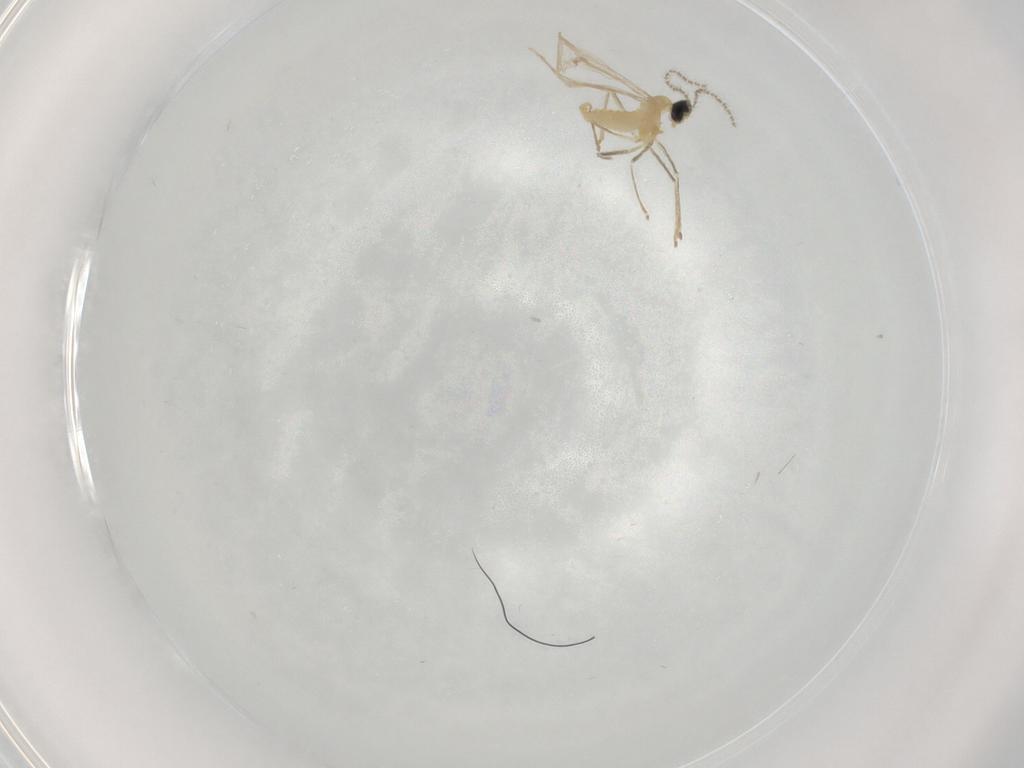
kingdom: Animalia
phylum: Arthropoda
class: Insecta
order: Diptera
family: Cecidomyiidae
